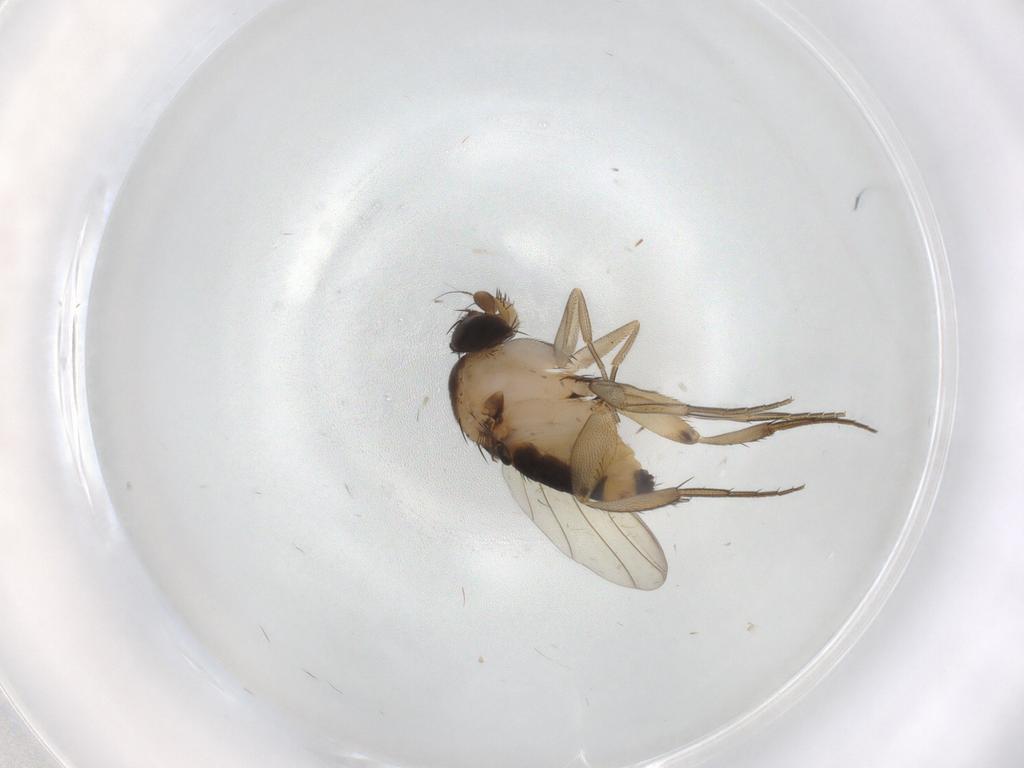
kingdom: Animalia
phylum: Arthropoda
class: Insecta
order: Diptera
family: Phoridae
